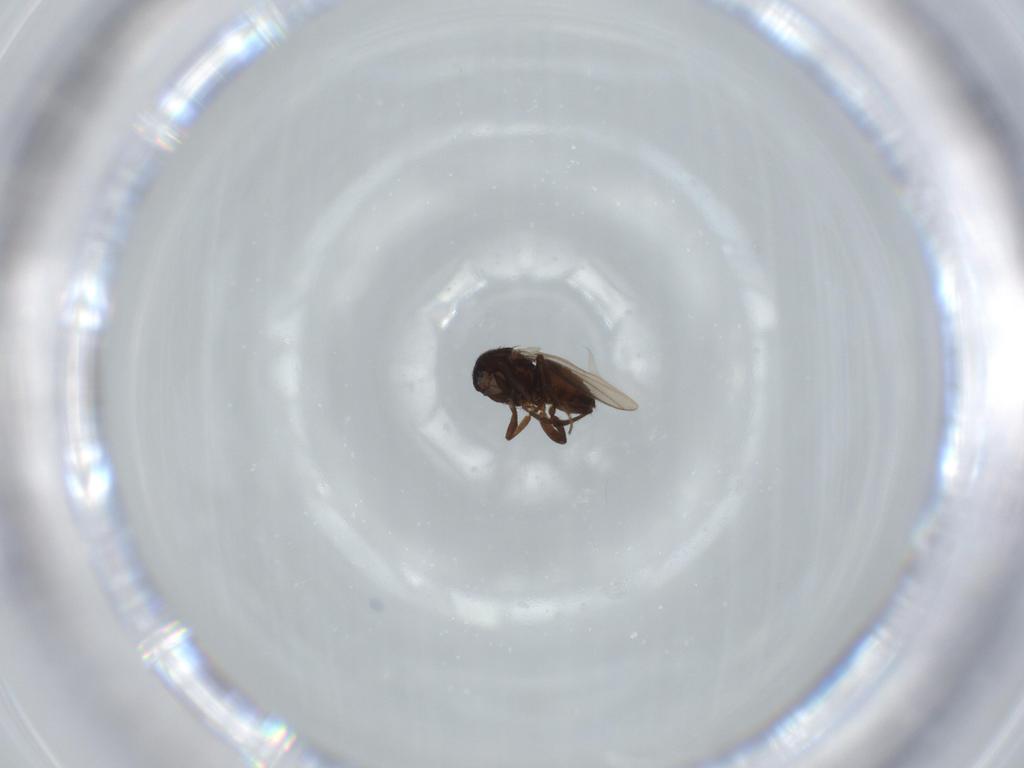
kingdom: Animalia
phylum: Arthropoda
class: Insecta
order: Diptera
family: Sphaeroceridae
